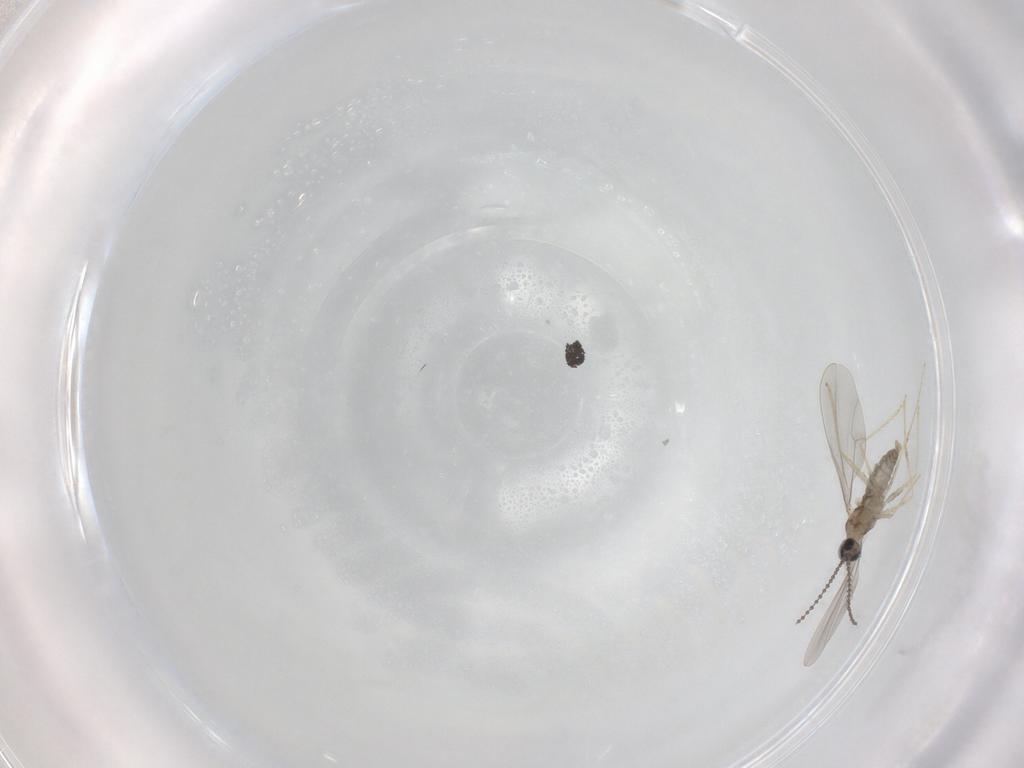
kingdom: Animalia
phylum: Arthropoda
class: Insecta
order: Diptera
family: Cecidomyiidae
